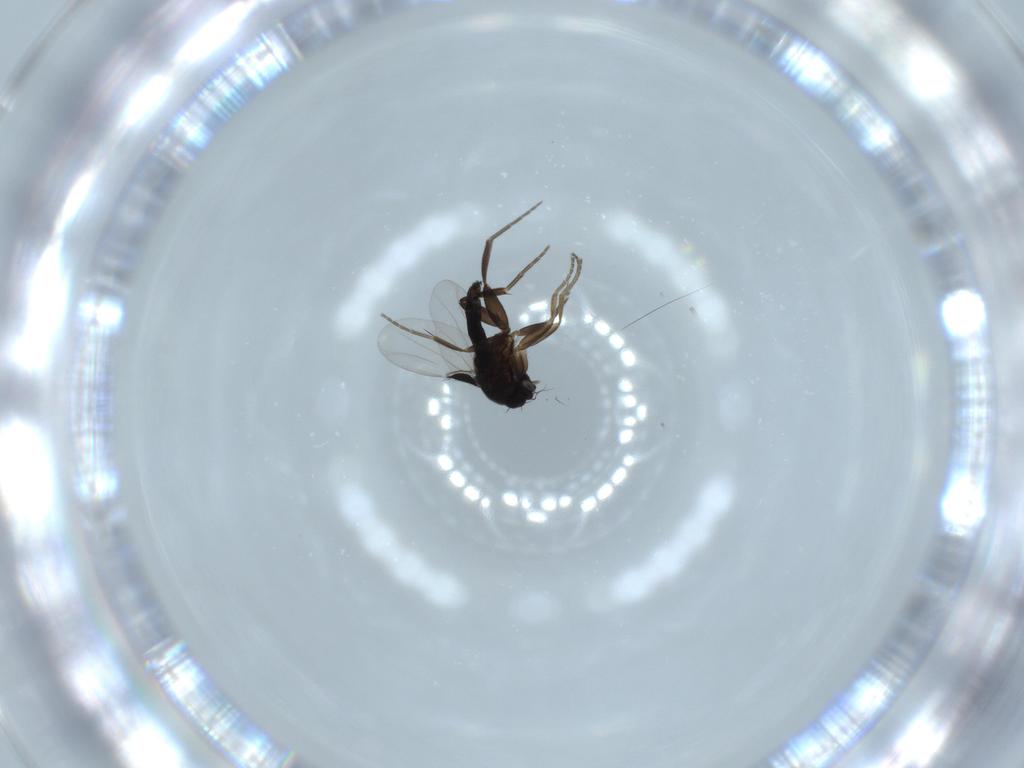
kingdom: Animalia
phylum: Arthropoda
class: Insecta
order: Diptera
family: Phoridae
